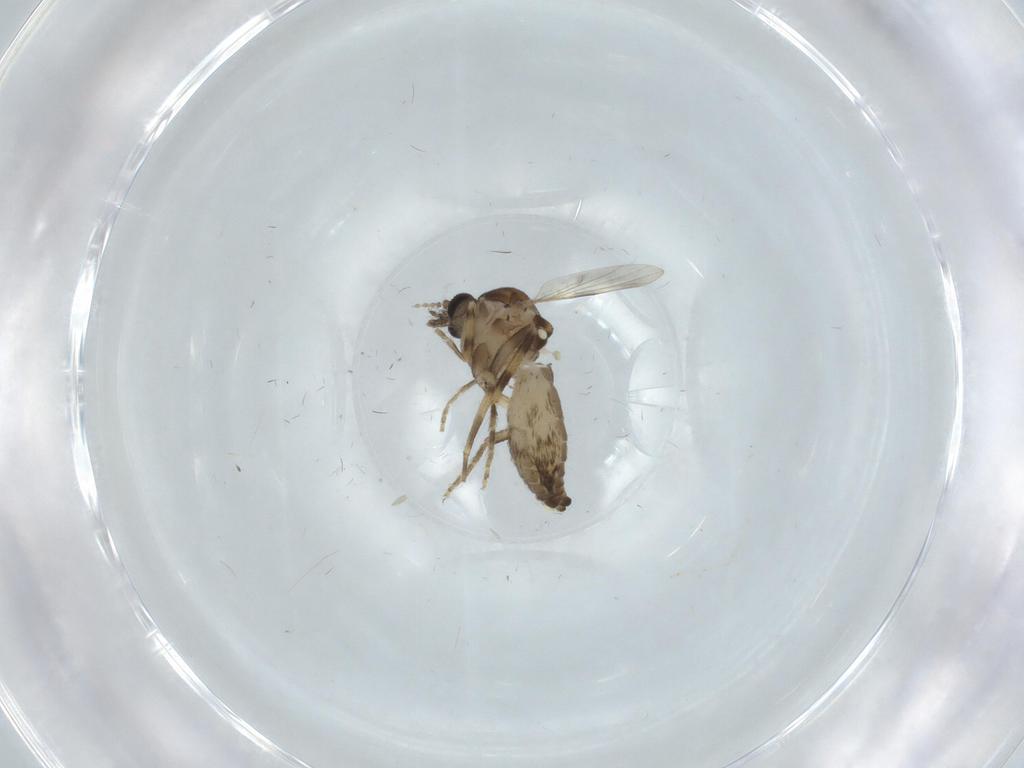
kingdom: Animalia
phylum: Arthropoda
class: Insecta
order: Diptera
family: Ceratopogonidae
